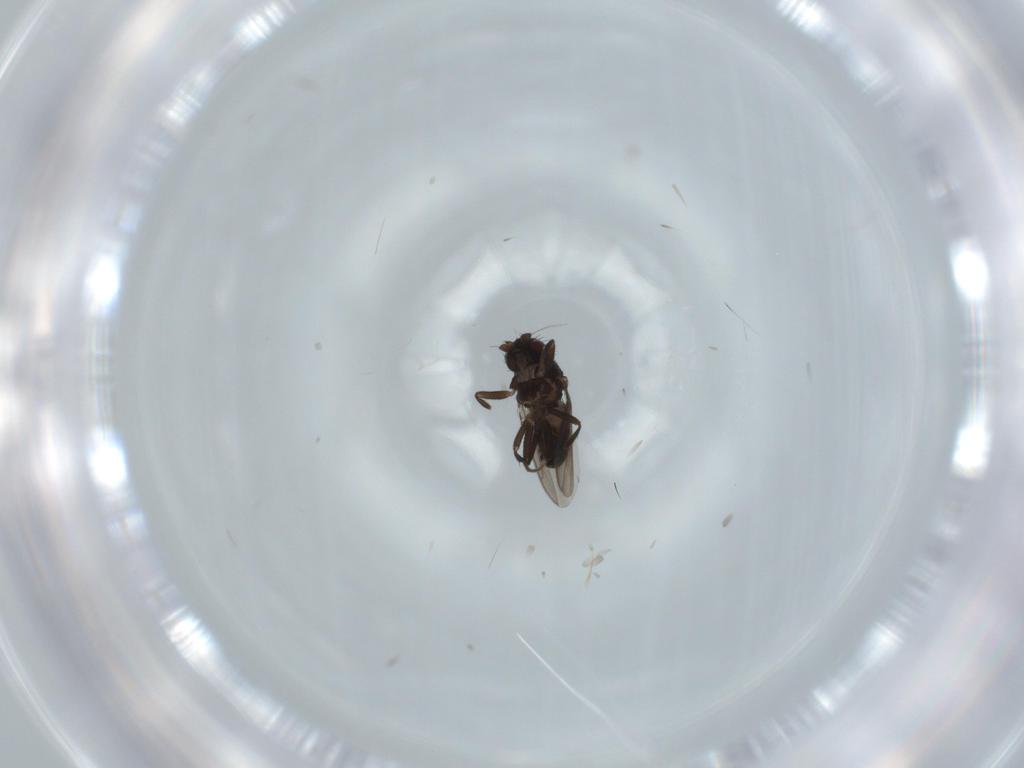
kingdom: Animalia
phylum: Arthropoda
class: Insecta
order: Diptera
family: Sphaeroceridae
